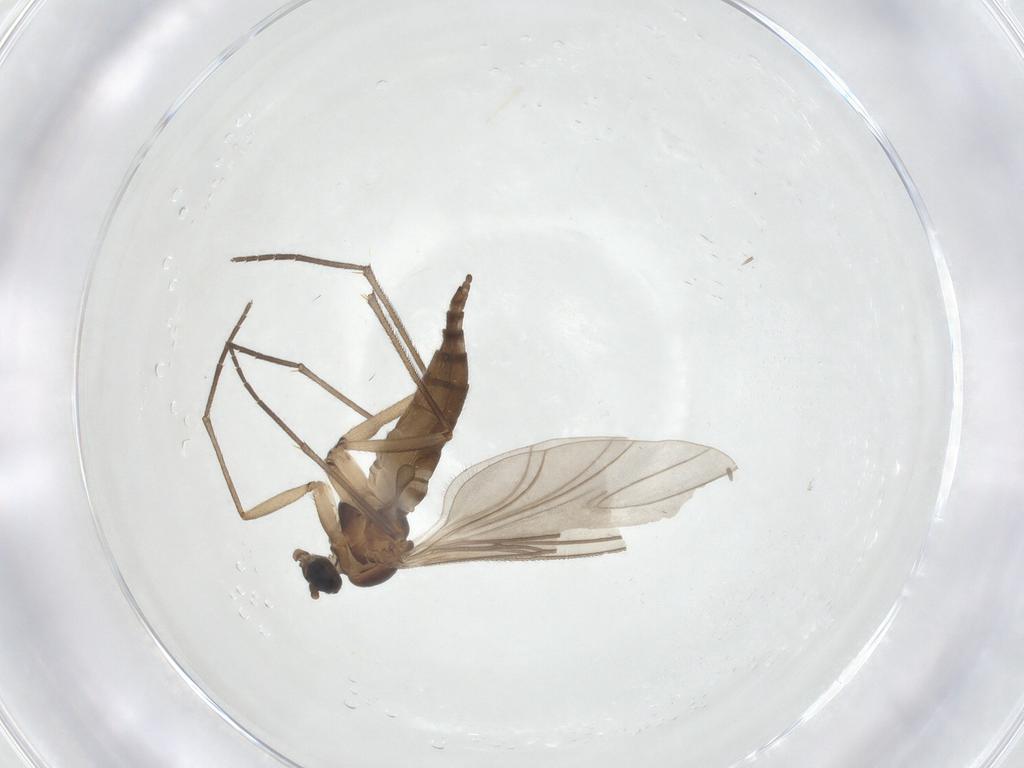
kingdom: Animalia
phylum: Arthropoda
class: Insecta
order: Diptera
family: Sciaridae
